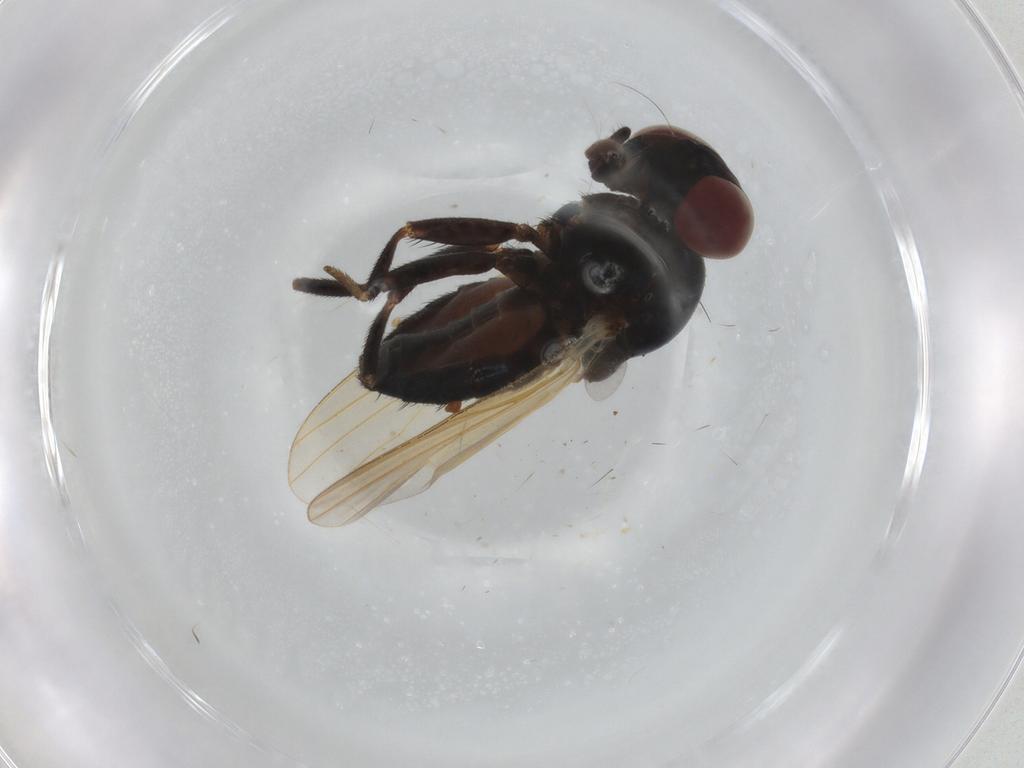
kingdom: Animalia
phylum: Arthropoda
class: Insecta
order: Diptera
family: Lonchaeidae
